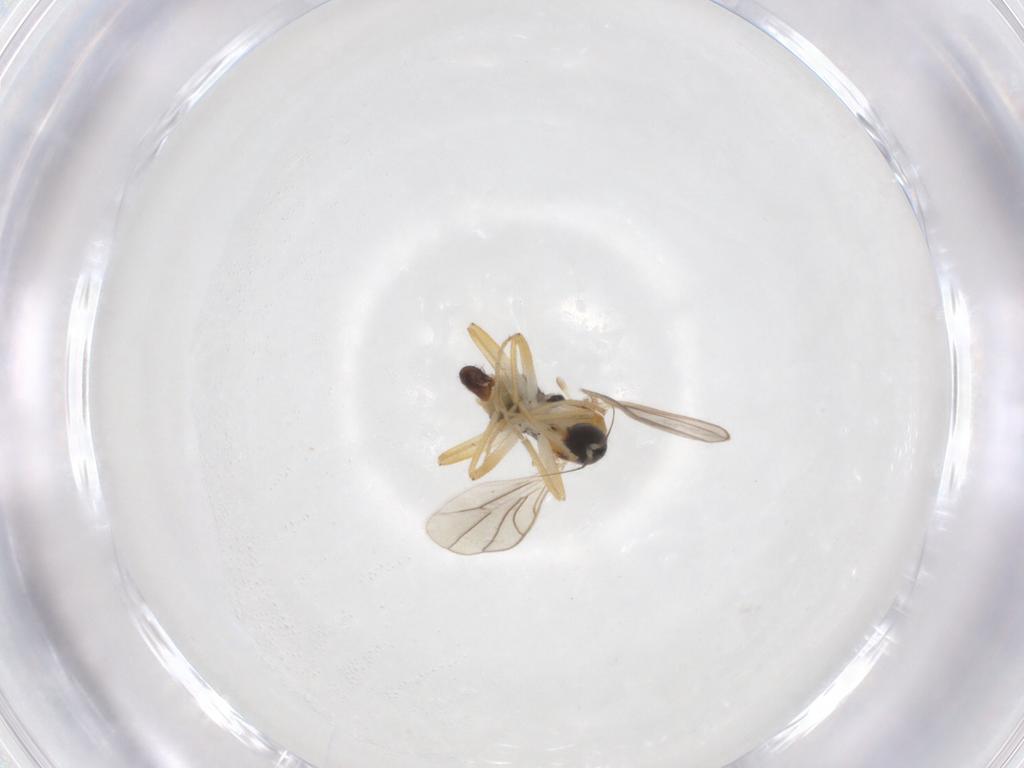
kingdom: Animalia
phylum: Arthropoda
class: Insecta
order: Diptera
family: Hybotidae
